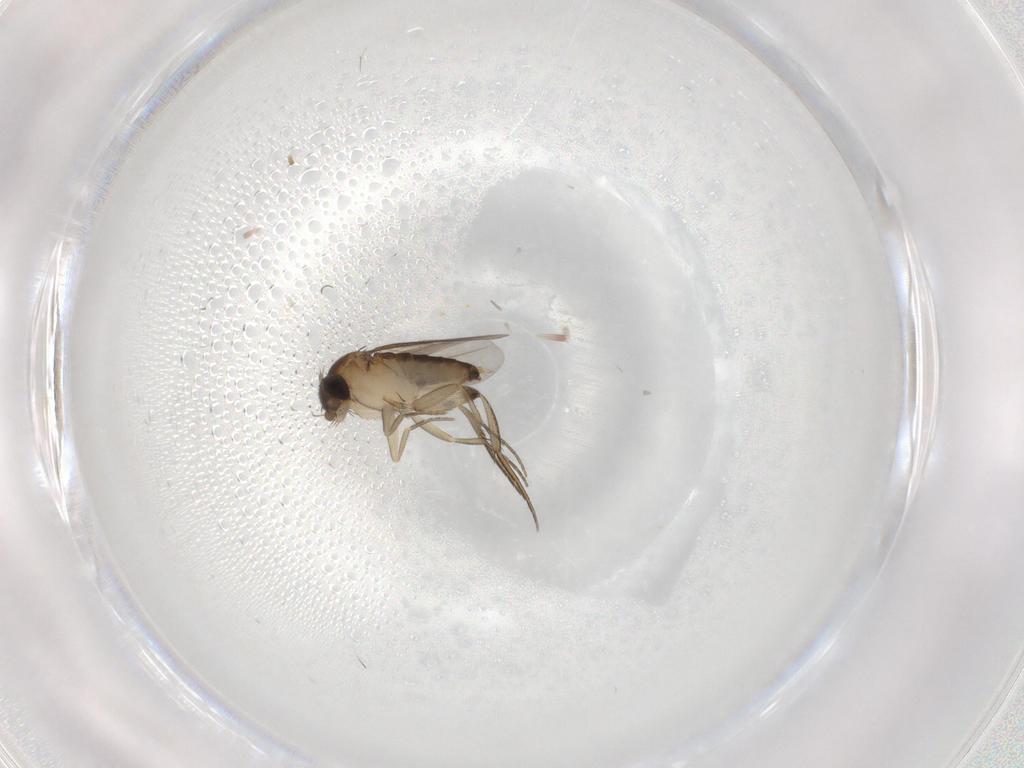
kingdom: Animalia
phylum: Arthropoda
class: Insecta
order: Diptera
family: Phoridae
